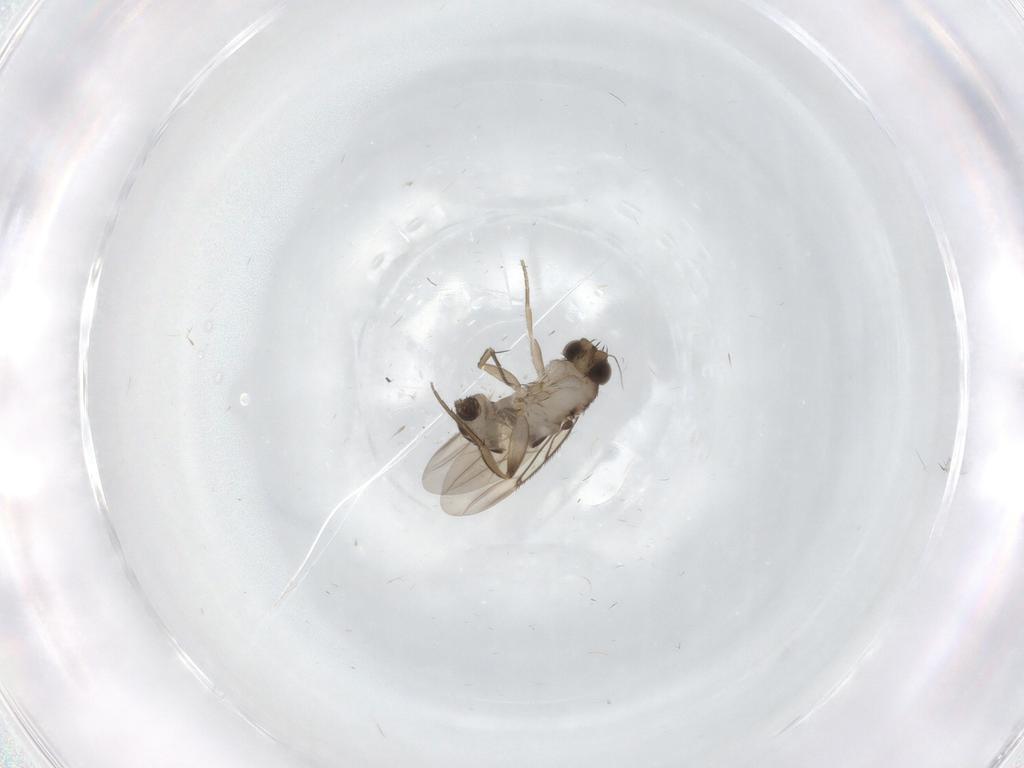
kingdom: Animalia
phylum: Arthropoda
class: Insecta
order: Diptera
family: Phoridae
